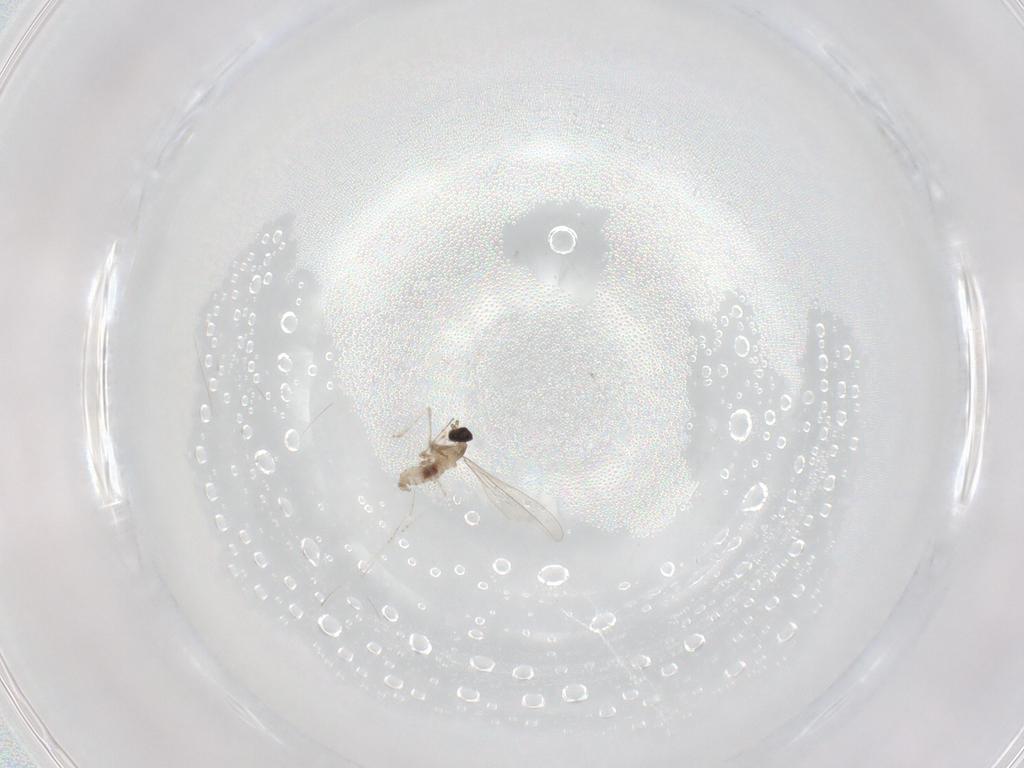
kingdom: Animalia
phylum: Arthropoda
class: Insecta
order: Diptera
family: Cecidomyiidae
